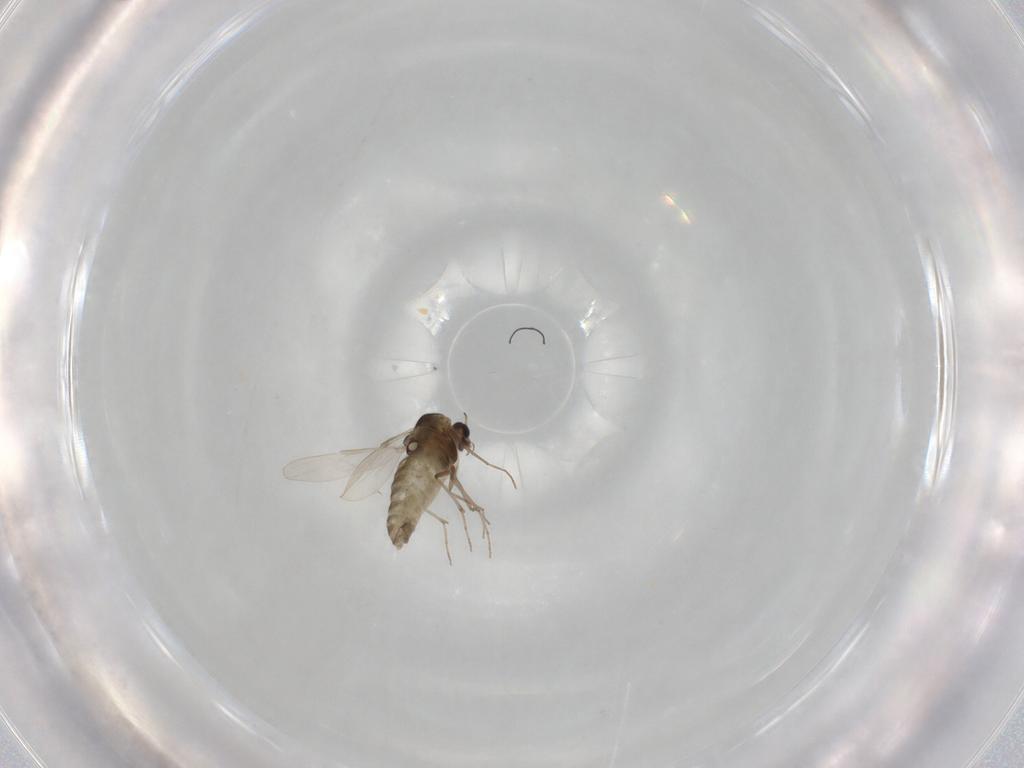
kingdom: Animalia
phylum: Arthropoda
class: Insecta
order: Diptera
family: Chironomidae
